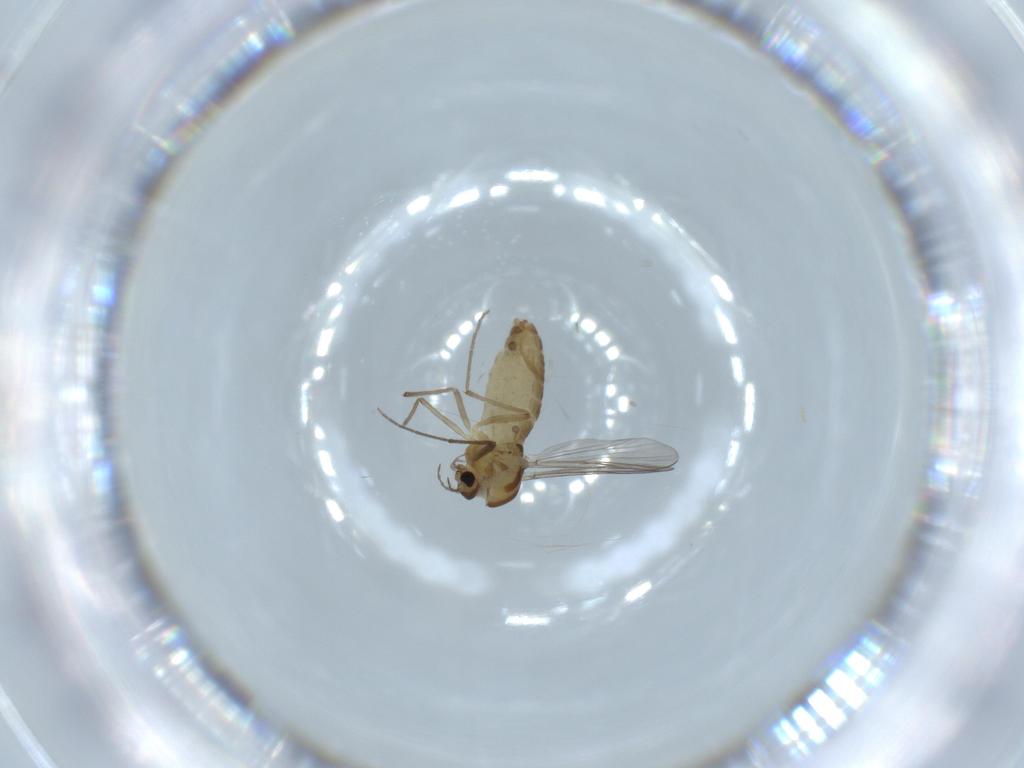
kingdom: Animalia
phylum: Arthropoda
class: Insecta
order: Diptera
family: Chironomidae
